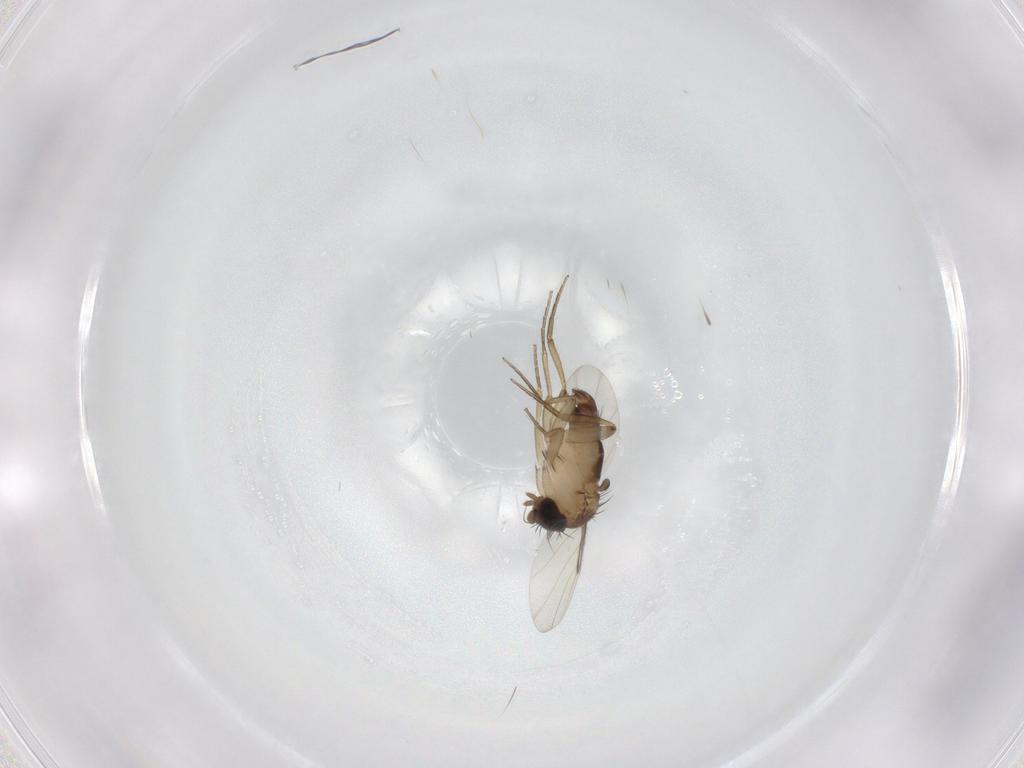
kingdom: Animalia
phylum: Arthropoda
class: Insecta
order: Diptera
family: Phoridae
